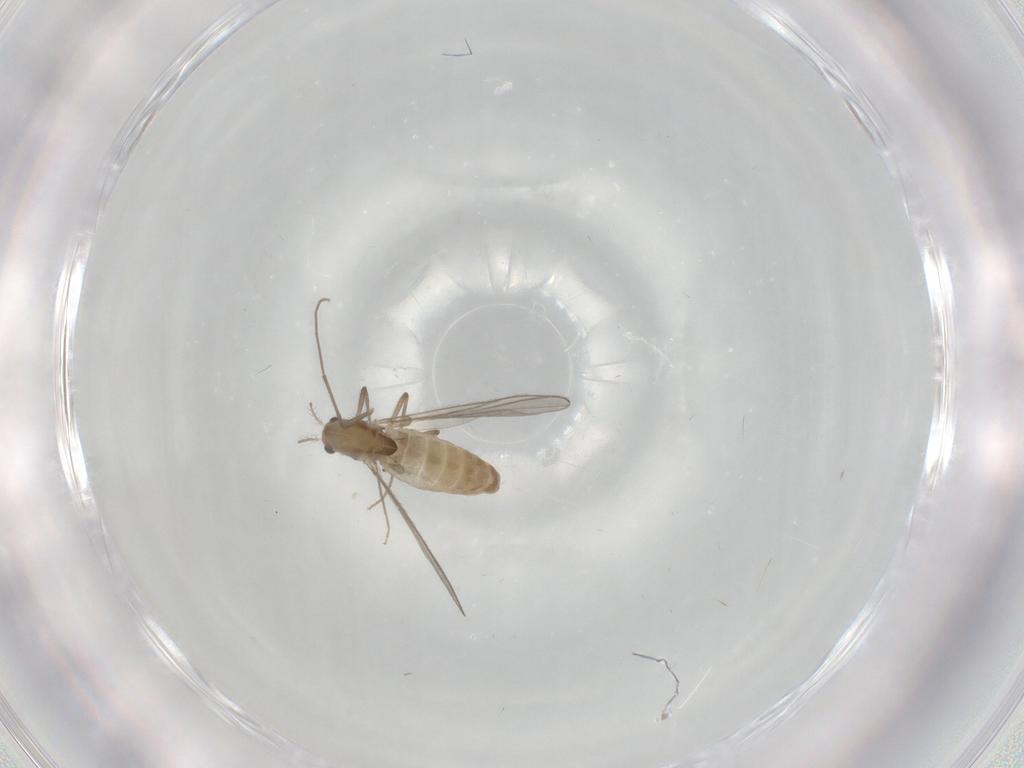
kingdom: Animalia
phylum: Arthropoda
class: Insecta
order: Diptera
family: Chironomidae
